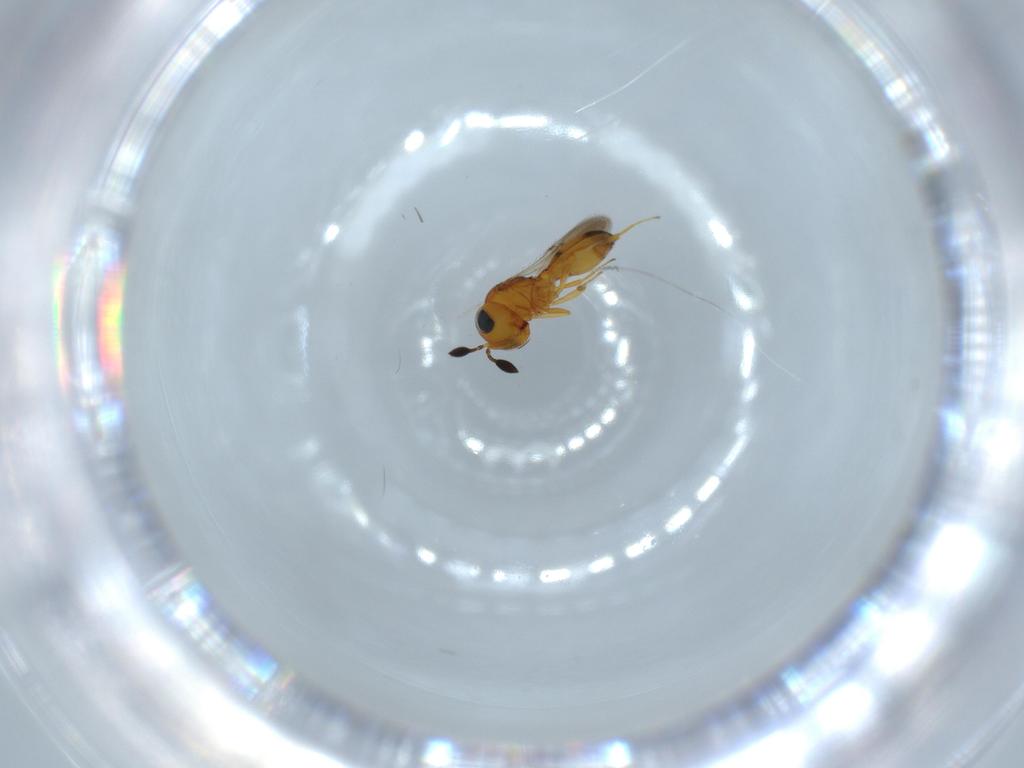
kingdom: Animalia
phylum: Arthropoda
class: Insecta
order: Hymenoptera
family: Scelionidae
